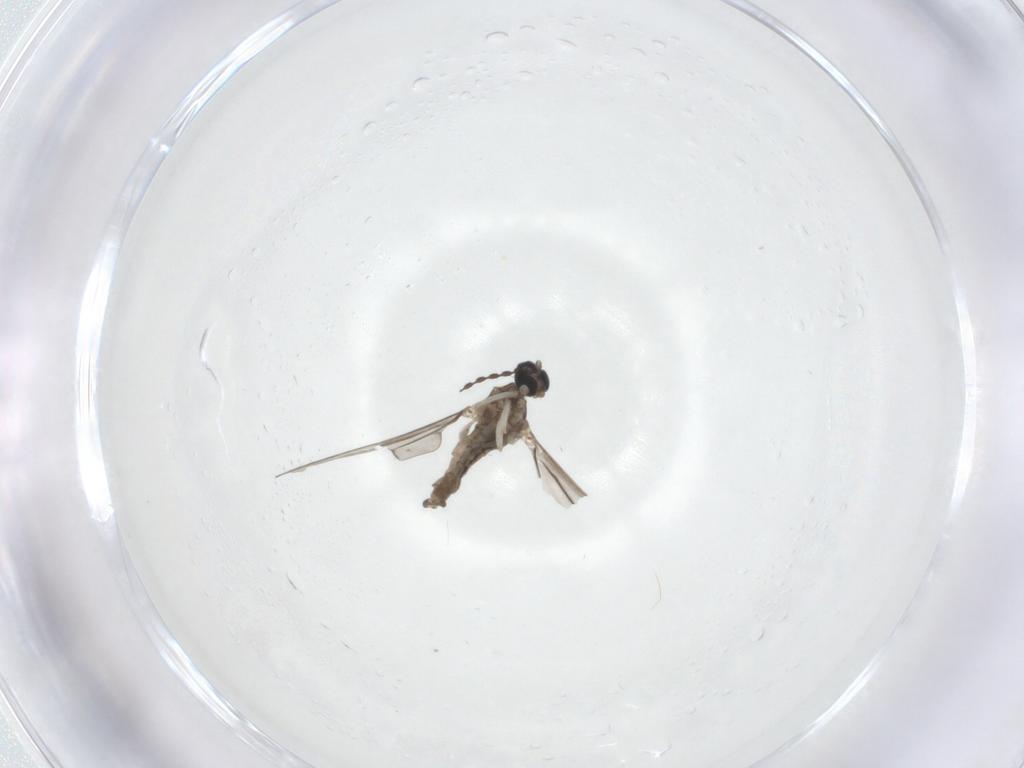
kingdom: Animalia
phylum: Arthropoda
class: Insecta
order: Diptera
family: Cecidomyiidae
